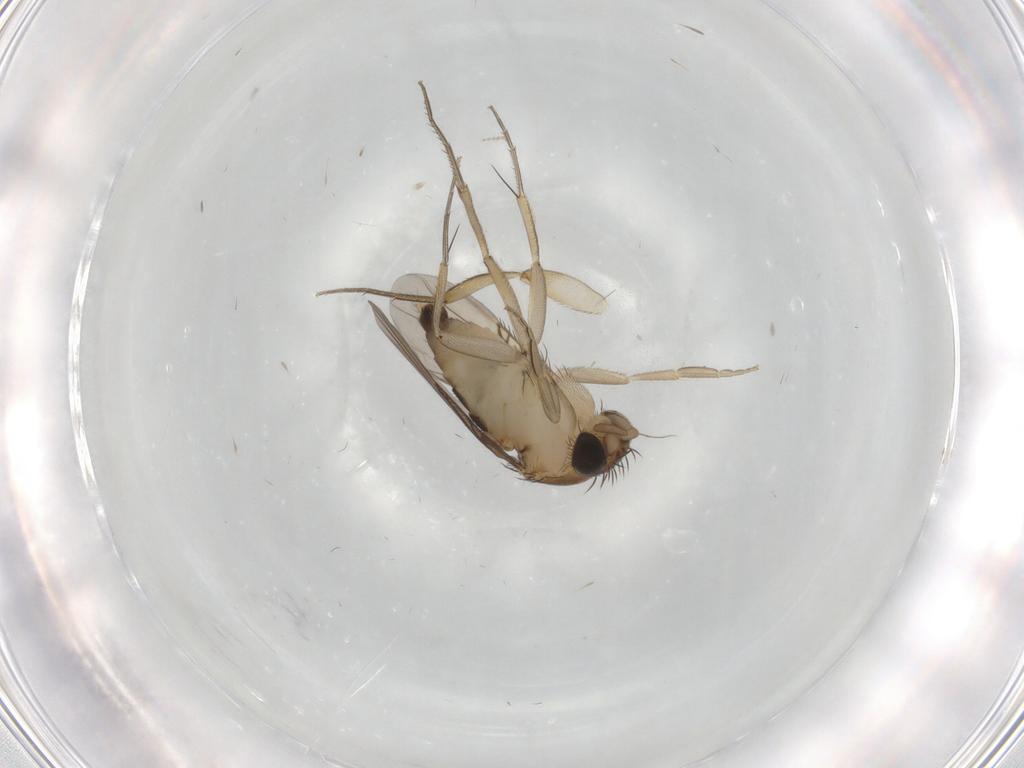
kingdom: Animalia
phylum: Arthropoda
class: Insecta
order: Diptera
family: Phoridae
